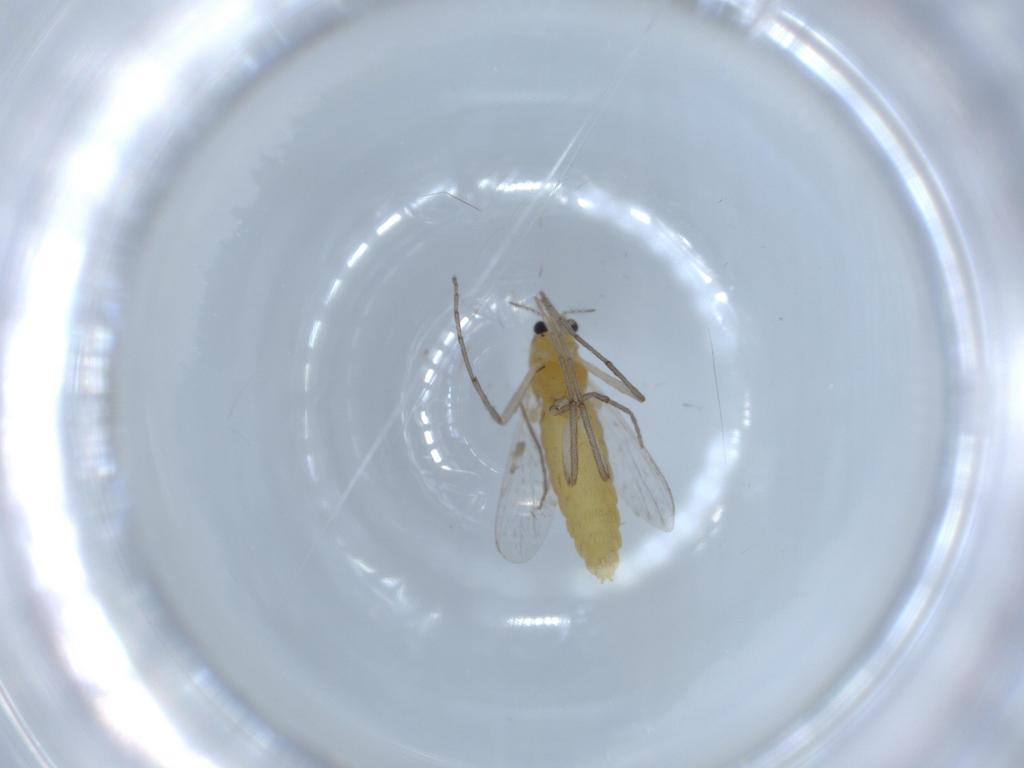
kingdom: Animalia
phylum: Arthropoda
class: Insecta
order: Diptera
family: Chironomidae
